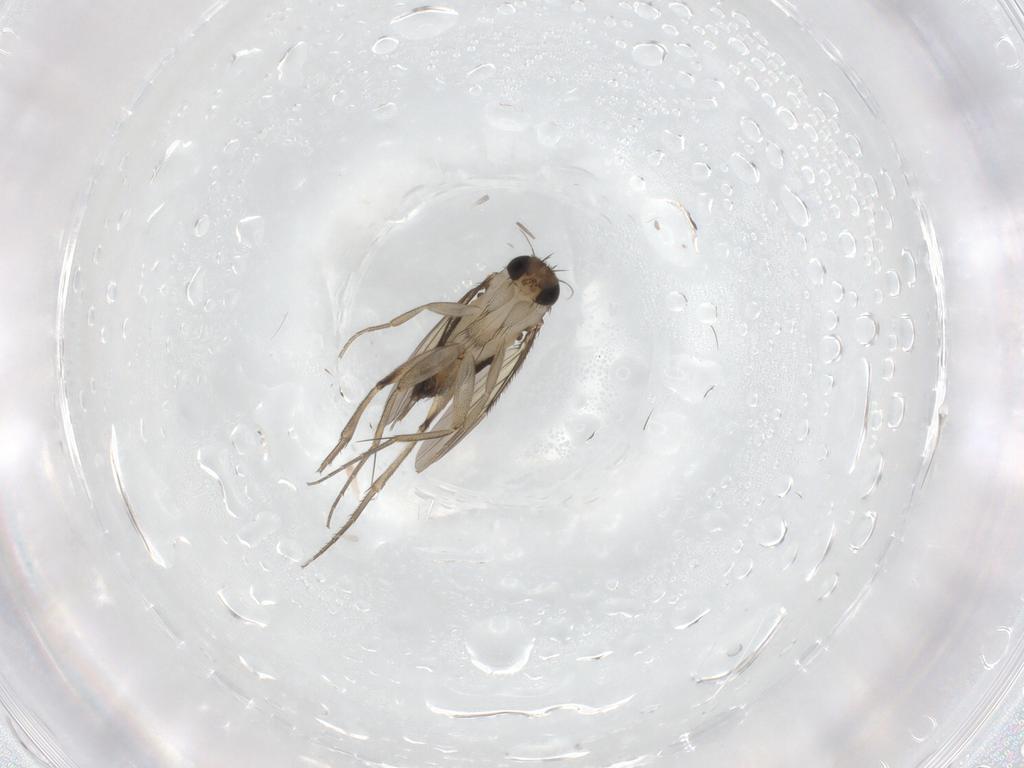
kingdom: Animalia
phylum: Arthropoda
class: Insecta
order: Diptera
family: Phoridae
